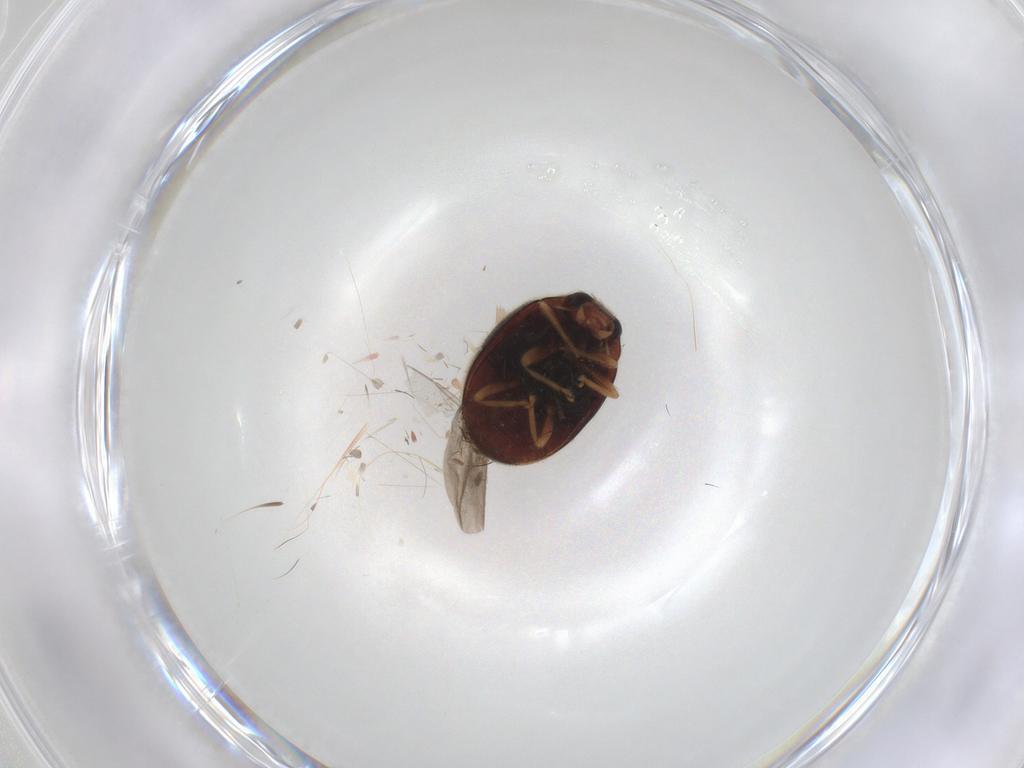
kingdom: Animalia
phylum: Arthropoda
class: Insecta
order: Coleoptera
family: Coccinellidae
